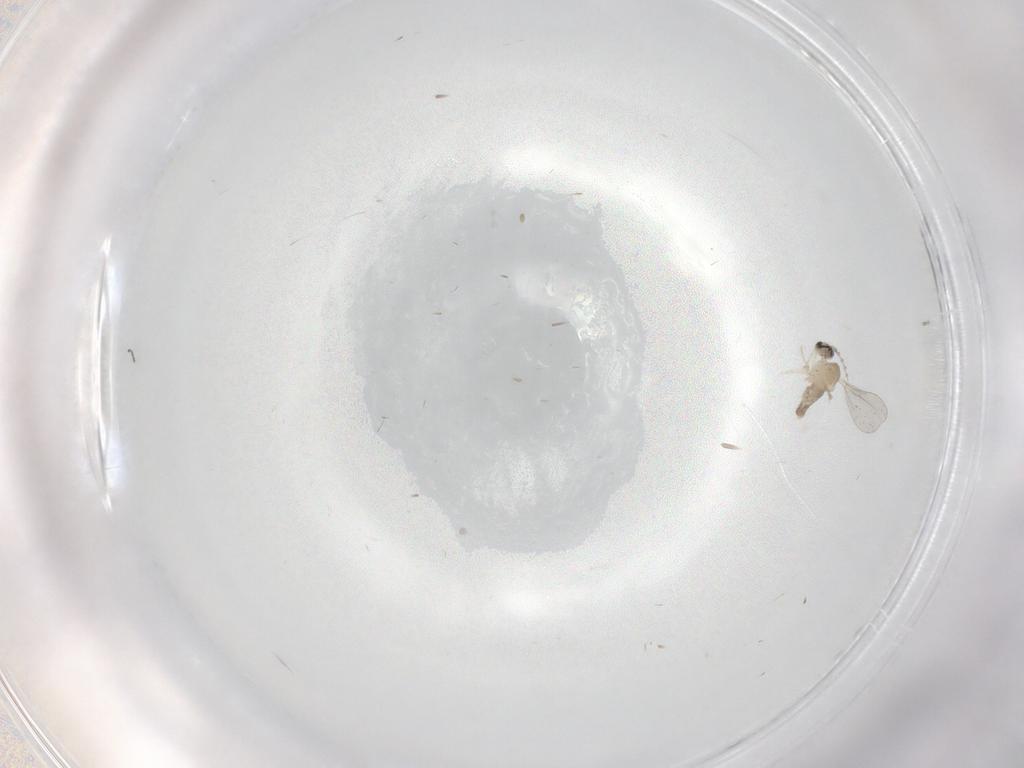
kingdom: Animalia
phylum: Arthropoda
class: Insecta
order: Diptera
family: Cecidomyiidae
